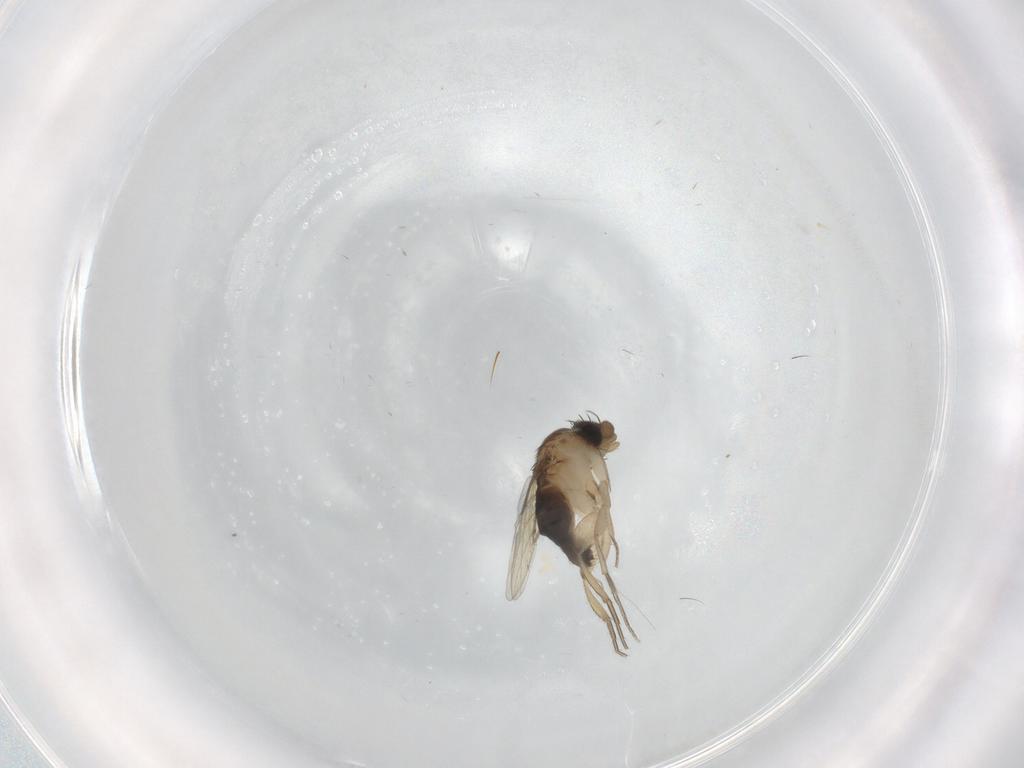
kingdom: Animalia
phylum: Arthropoda
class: Insecta
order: Diptera
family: Phoridae
